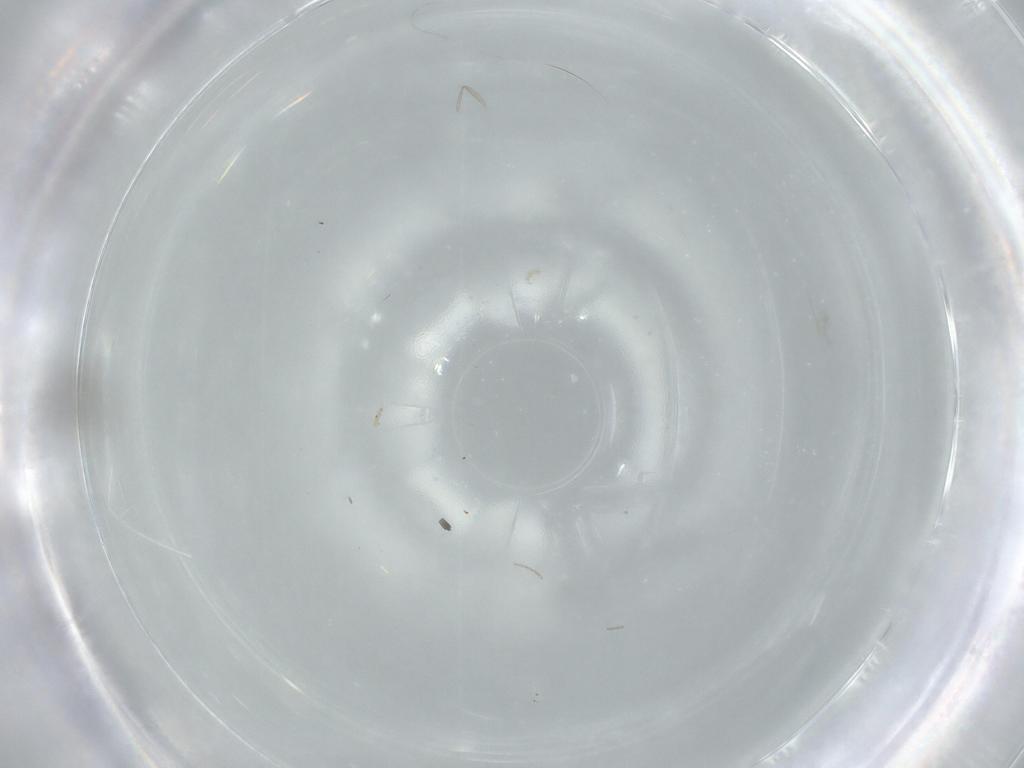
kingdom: Animalia
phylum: Arthropoda
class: Insecta
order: Diptera
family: Cecidomyiidae
